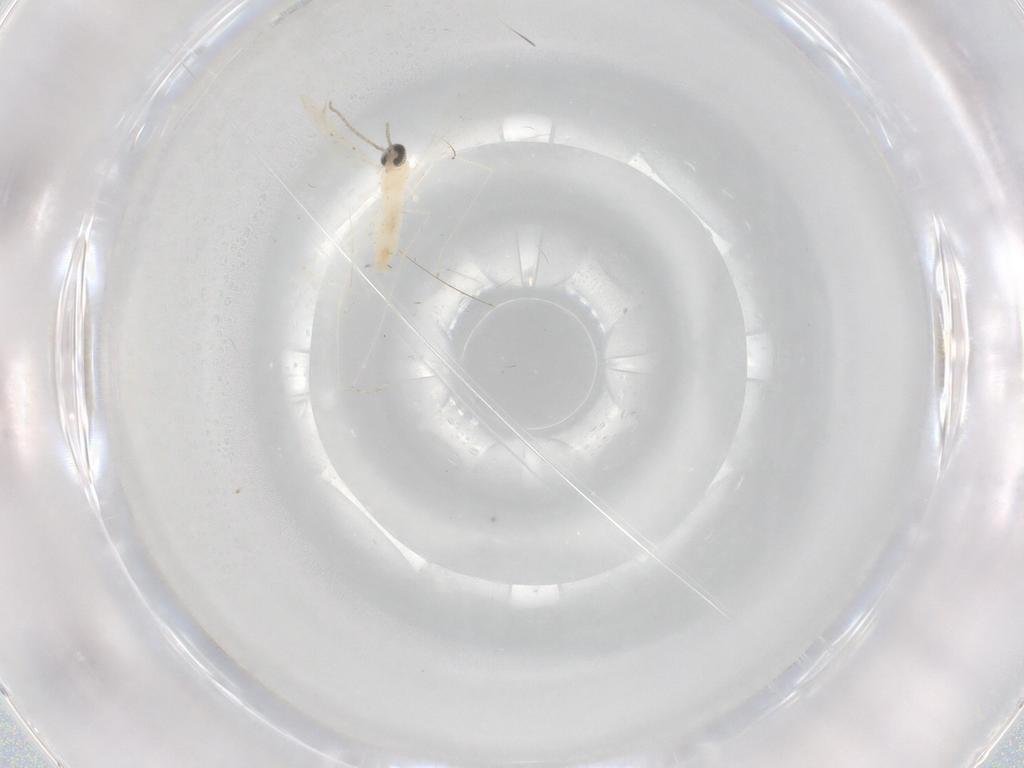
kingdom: Animalia
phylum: Arthropoda
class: Insecta
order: Diptera
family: Cecidomyiidae
